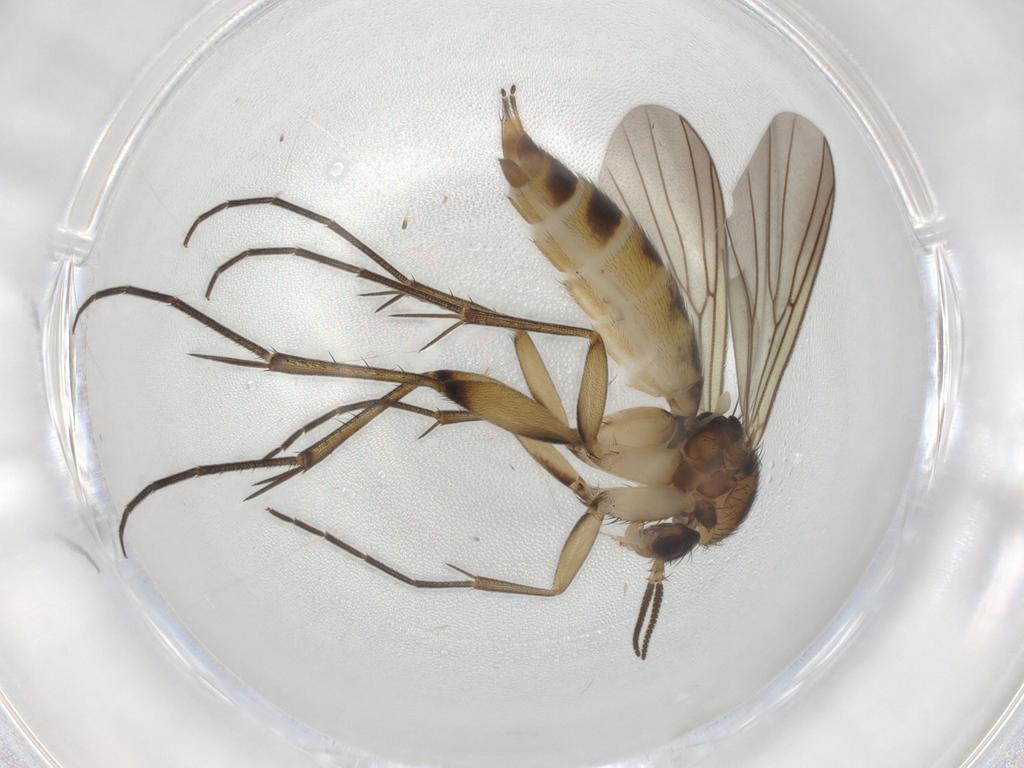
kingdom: Animalia
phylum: Arthropoda
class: Insecta
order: Diptera
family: Mycetophilidae
